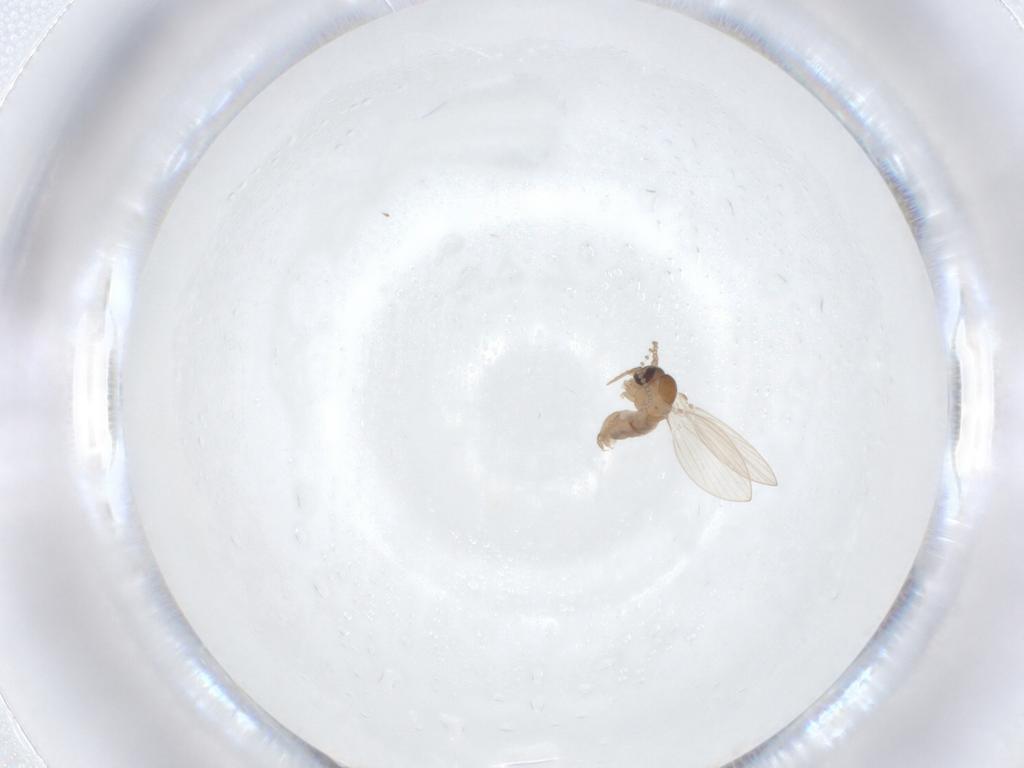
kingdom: Animalia
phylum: Arthropoda
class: Insecta
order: Diptera
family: Psychodidae
